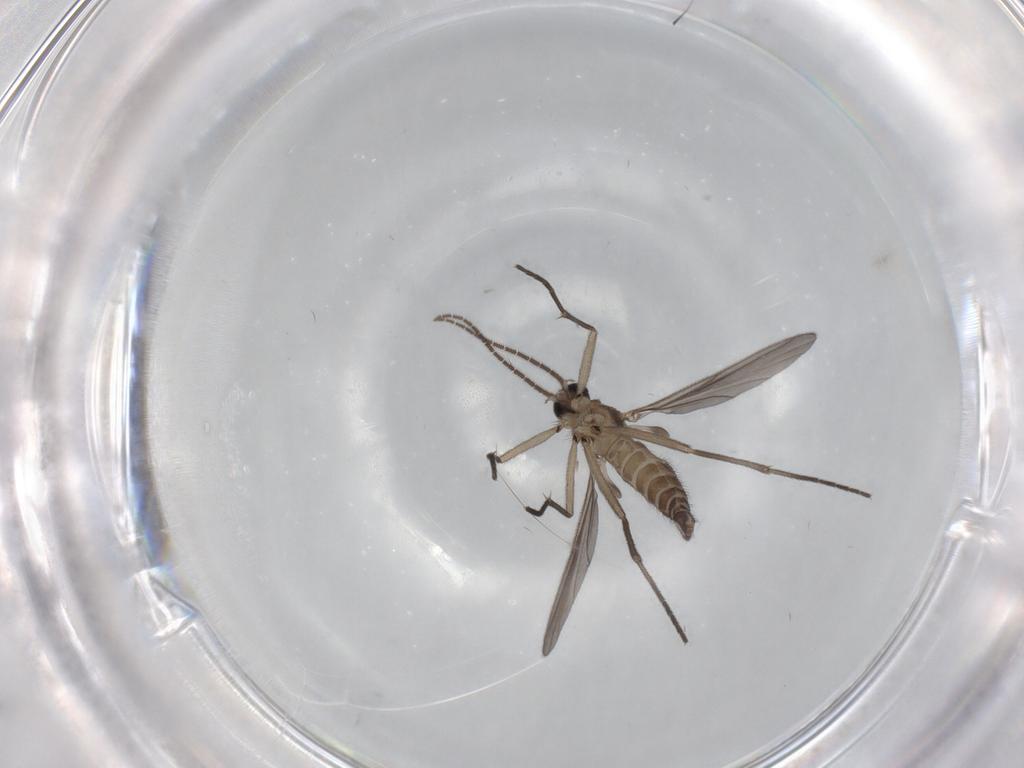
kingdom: Animalia
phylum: Arthropoda
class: Insecta
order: Diptera
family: Sciaridae
